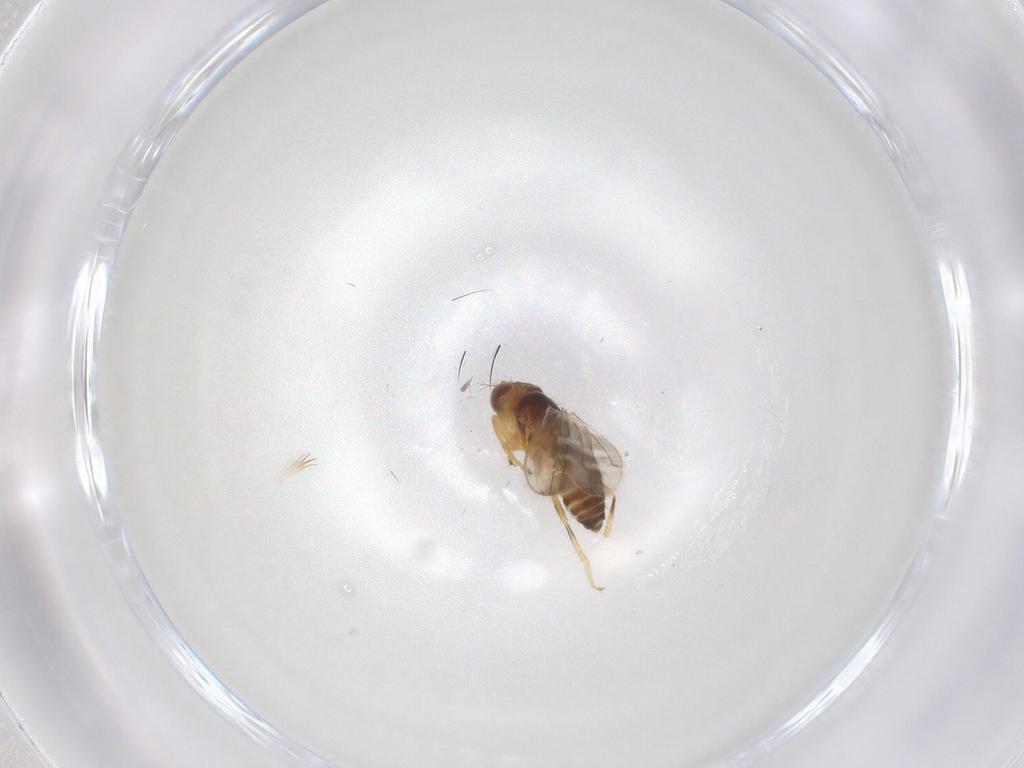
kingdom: Animalia
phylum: Arthropoda
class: Insecta
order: Diptera
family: Periscelididae
